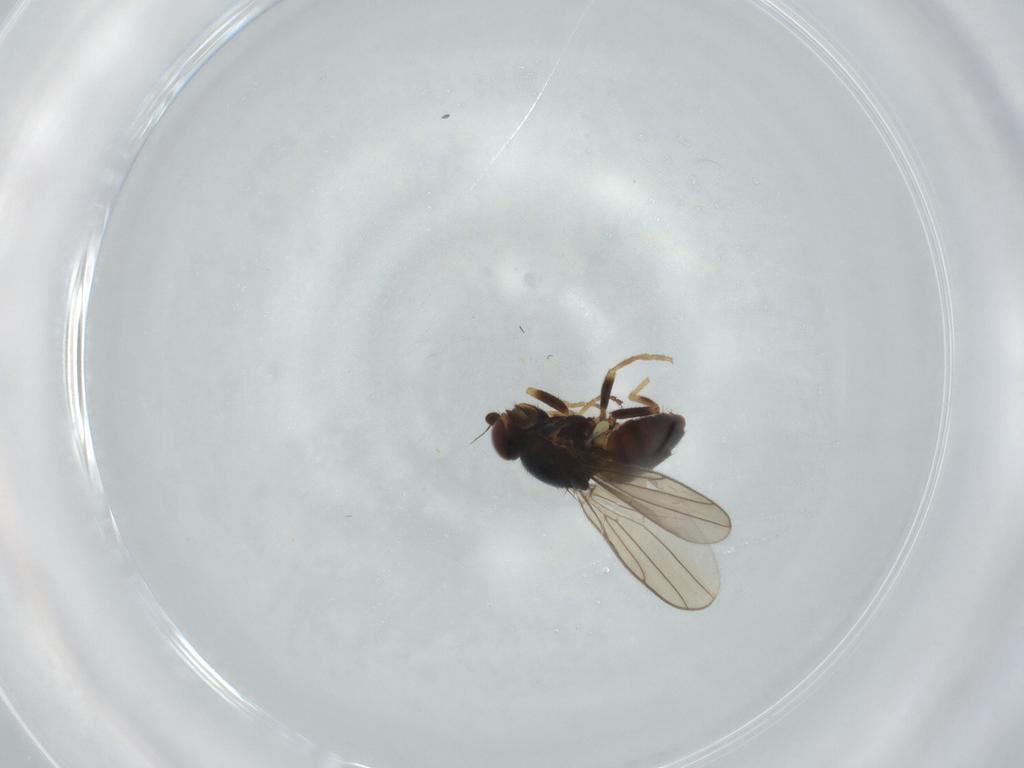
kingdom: Animalia
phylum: Arthropoda
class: Insecta
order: Diptera
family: Chloropidae
